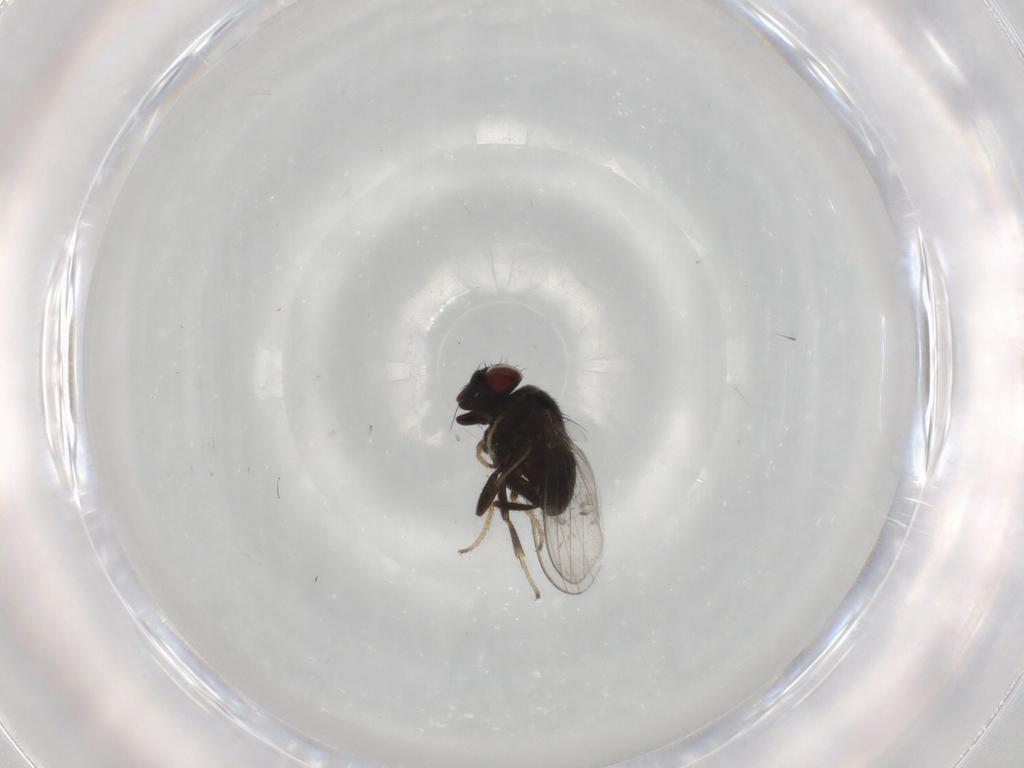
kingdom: Animalia
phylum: Arthropoda
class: Insecta
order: Diptera
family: Milichiidae
